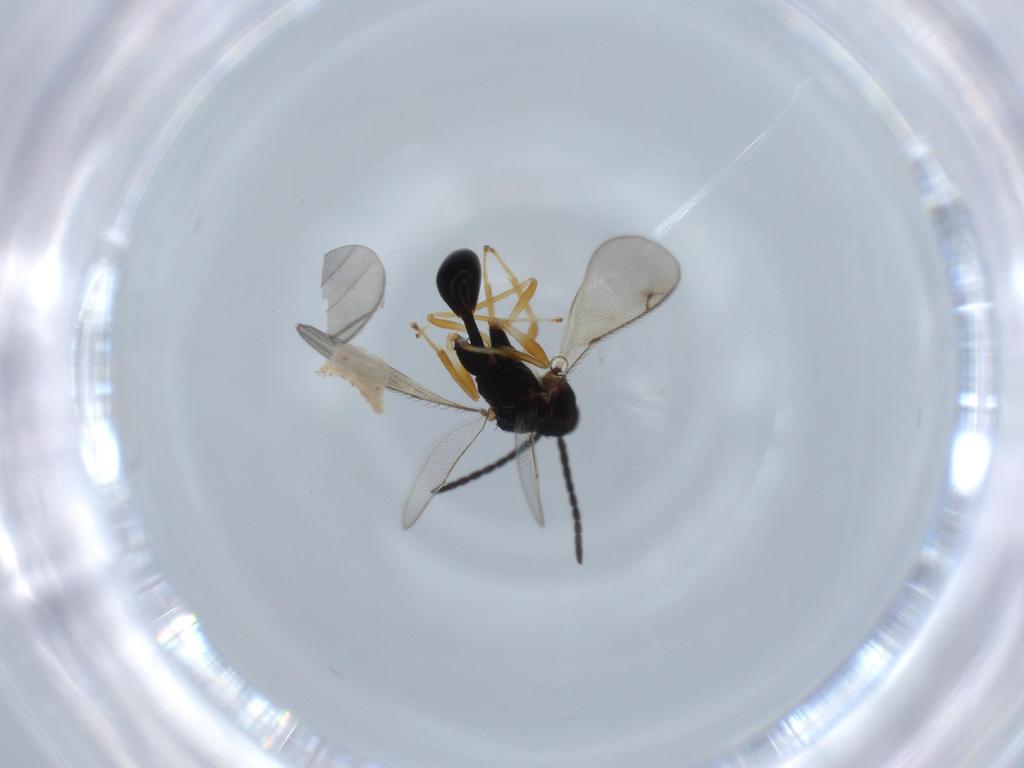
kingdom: Animalia
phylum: Arthropoda
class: Insecta
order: Hymenoptera
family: Diparidae
